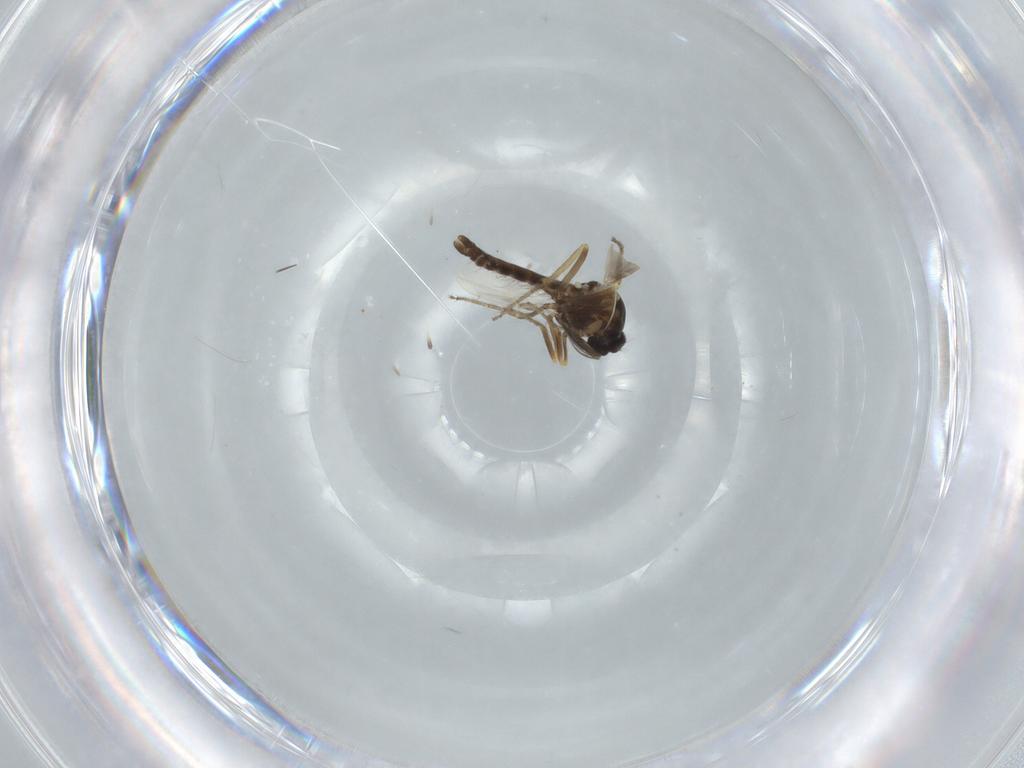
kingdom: Animalia
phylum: Arthropoda
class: Insecta
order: Diptera
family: Ceratopogonidae
